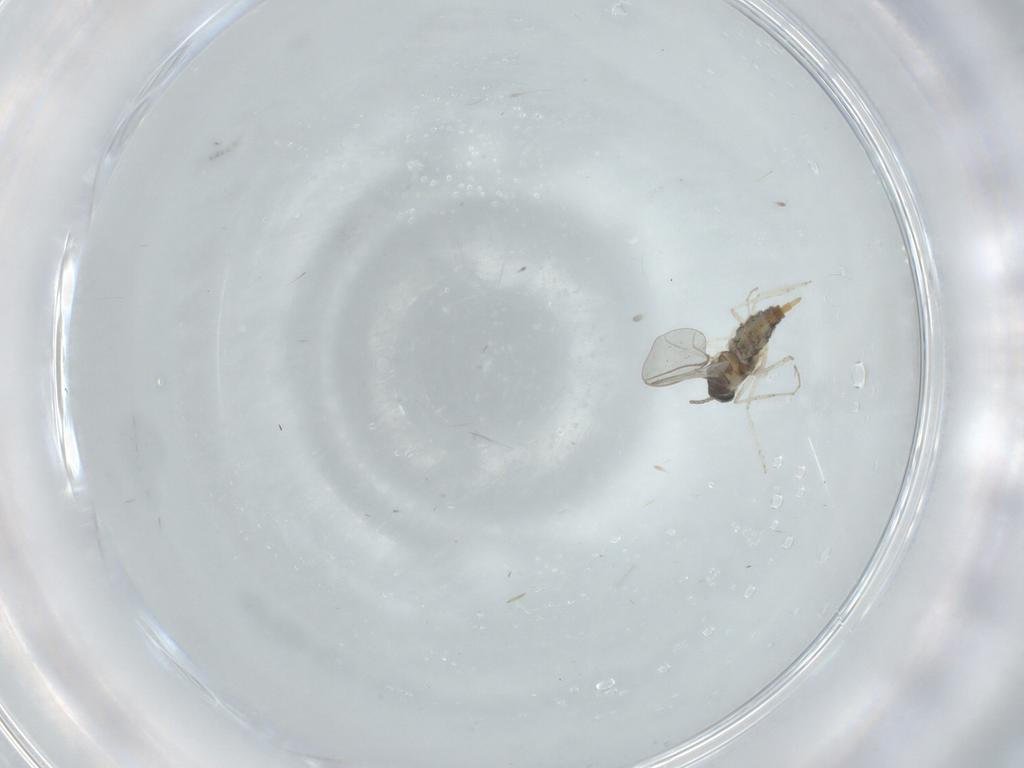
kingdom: Animalia
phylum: Arthropoda
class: Insecta
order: Diptera
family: Cecidomyiidae
